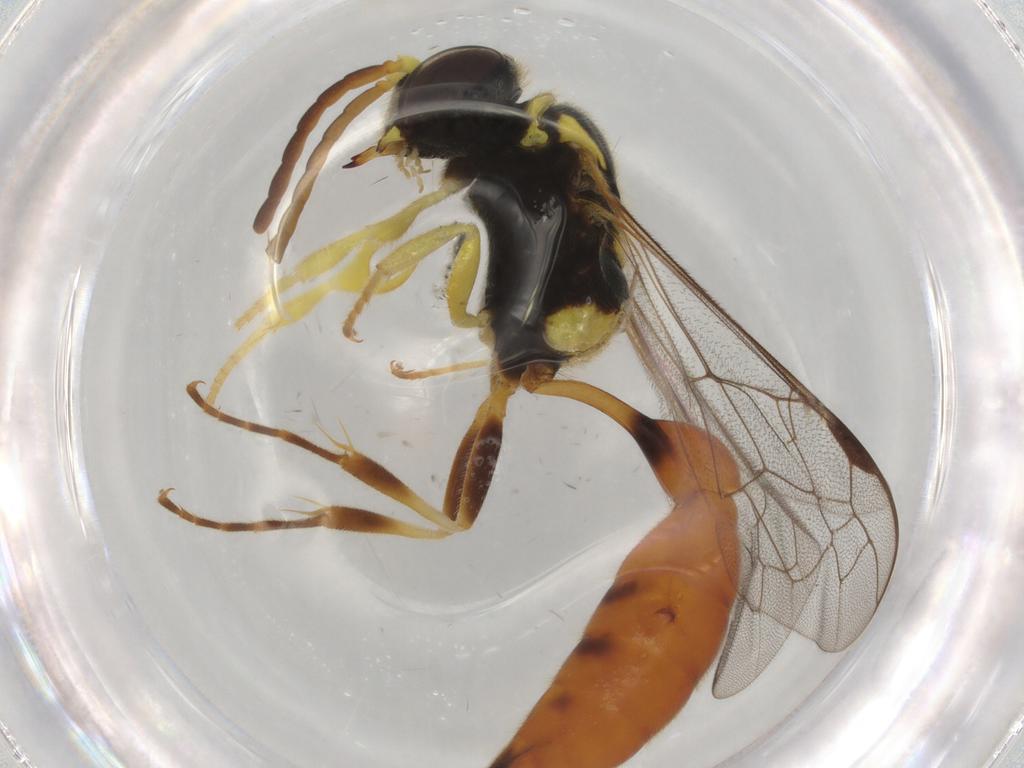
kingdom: Animalia
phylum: Arthropoda
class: Insecta
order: Hymenoptera
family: Crabronidae
